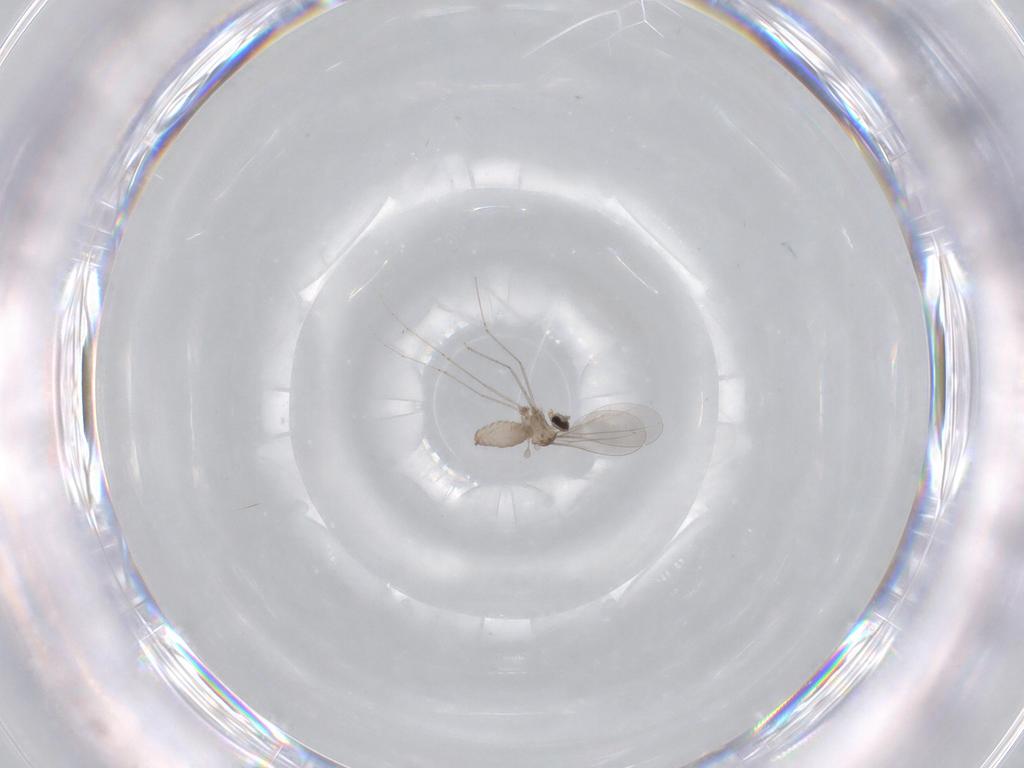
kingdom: Animalia
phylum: Arthropoda
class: Insecta
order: Diptera
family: Cecidomyiidae
